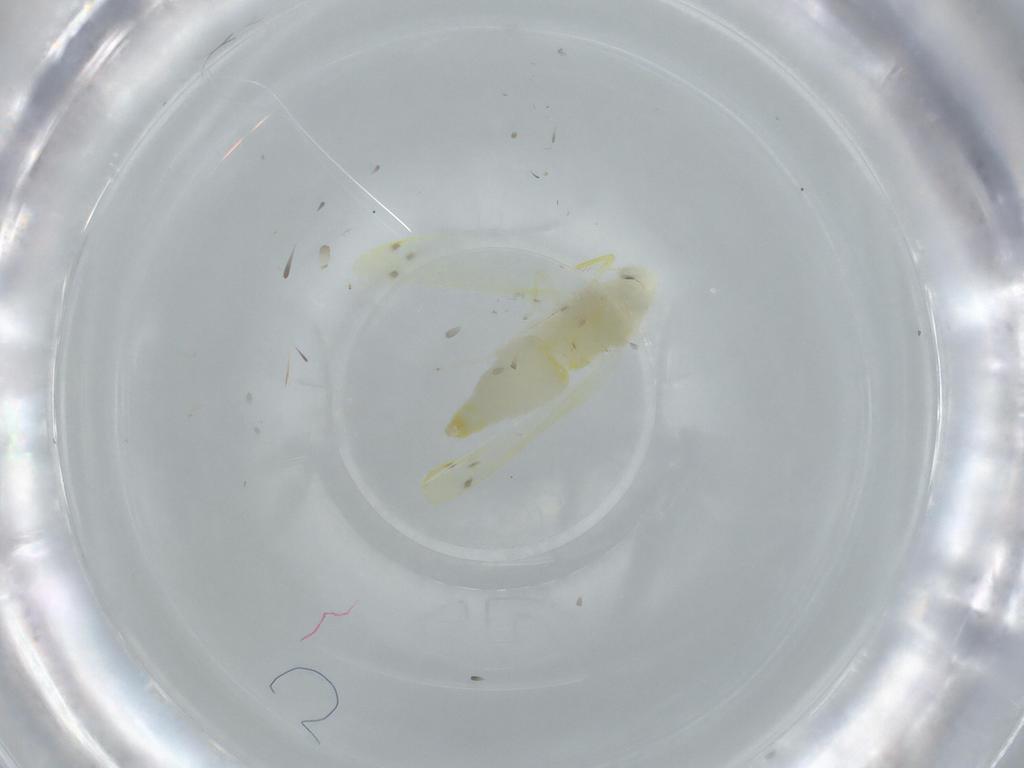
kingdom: Animalia
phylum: Arthropoda
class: Insecta
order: Hemiptera
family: Cicadellidae
